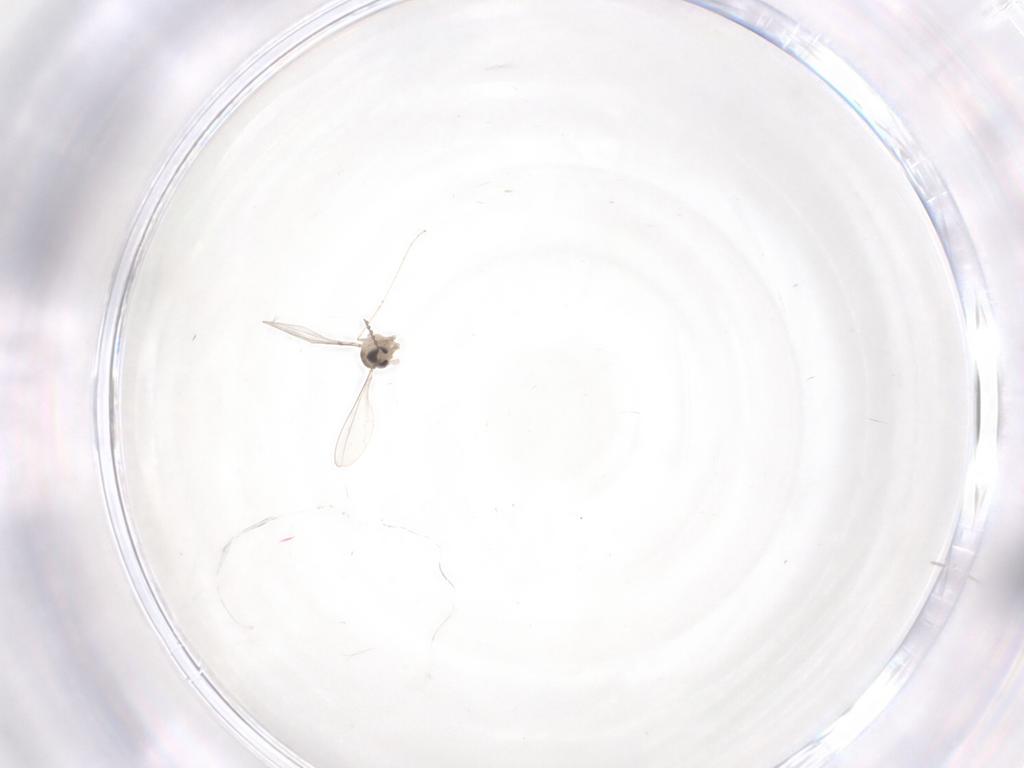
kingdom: Animalia
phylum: Arthropoda
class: Insecta
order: Diptera
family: Cecidomyiidae
